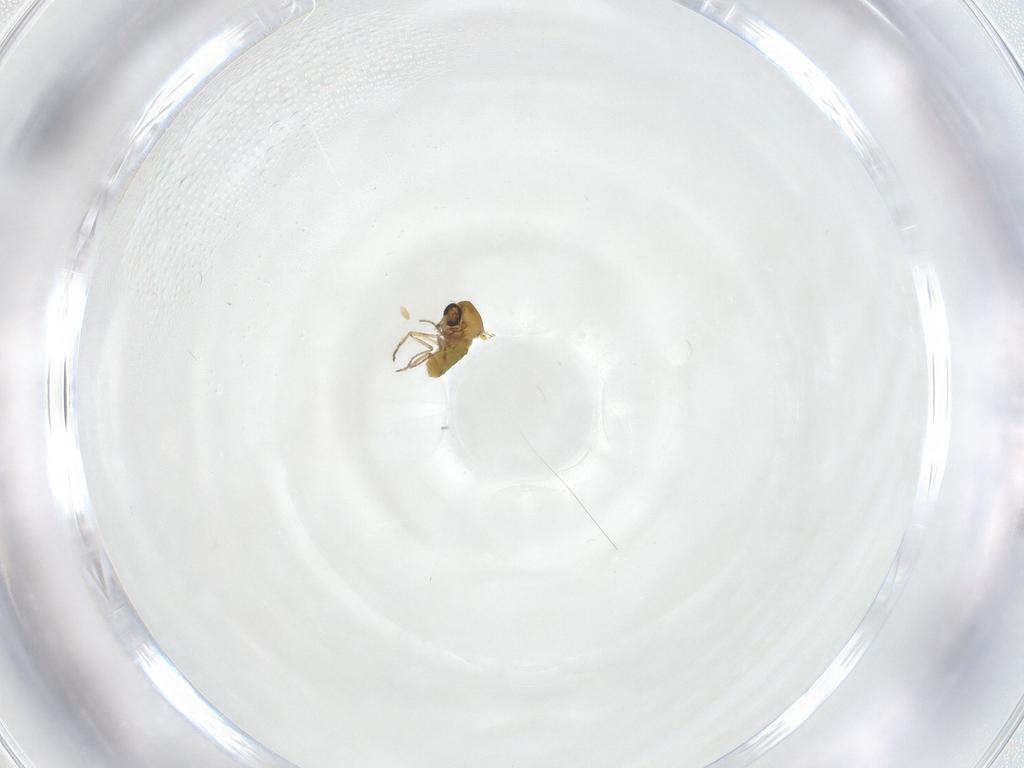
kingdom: Animalia
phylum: Arthropoda
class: Insecta
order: Diptera
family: Ceratopogonidae
